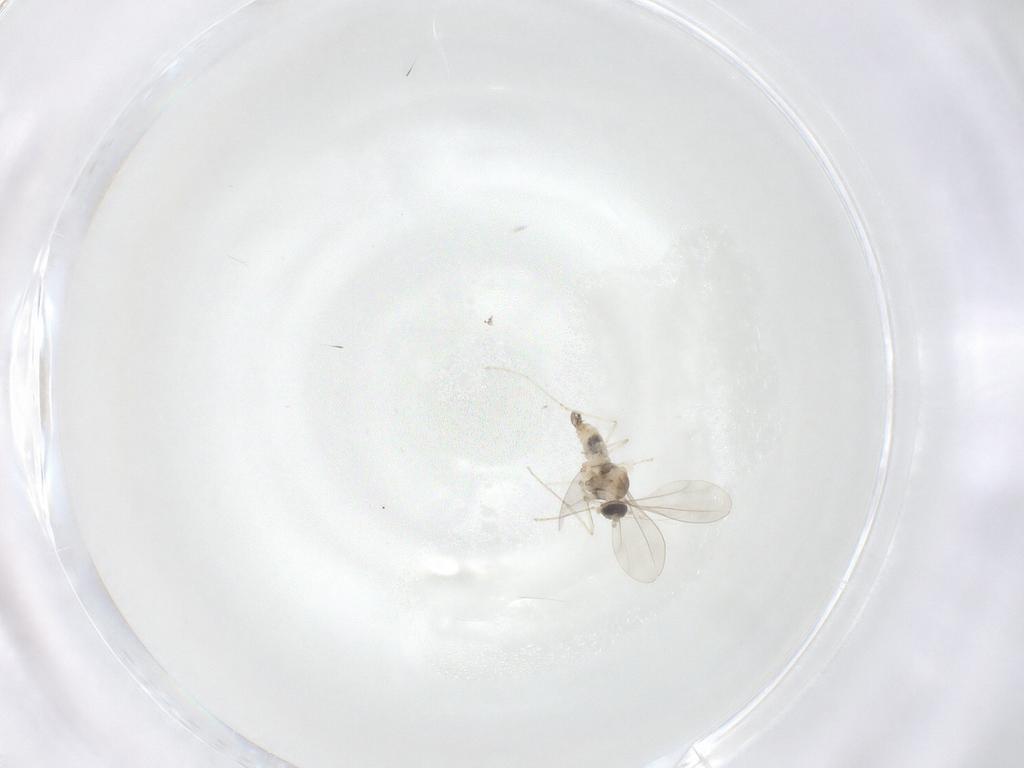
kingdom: Animalia
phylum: Arthropoda
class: Insecta
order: Diptera
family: Cecidomyiidae
